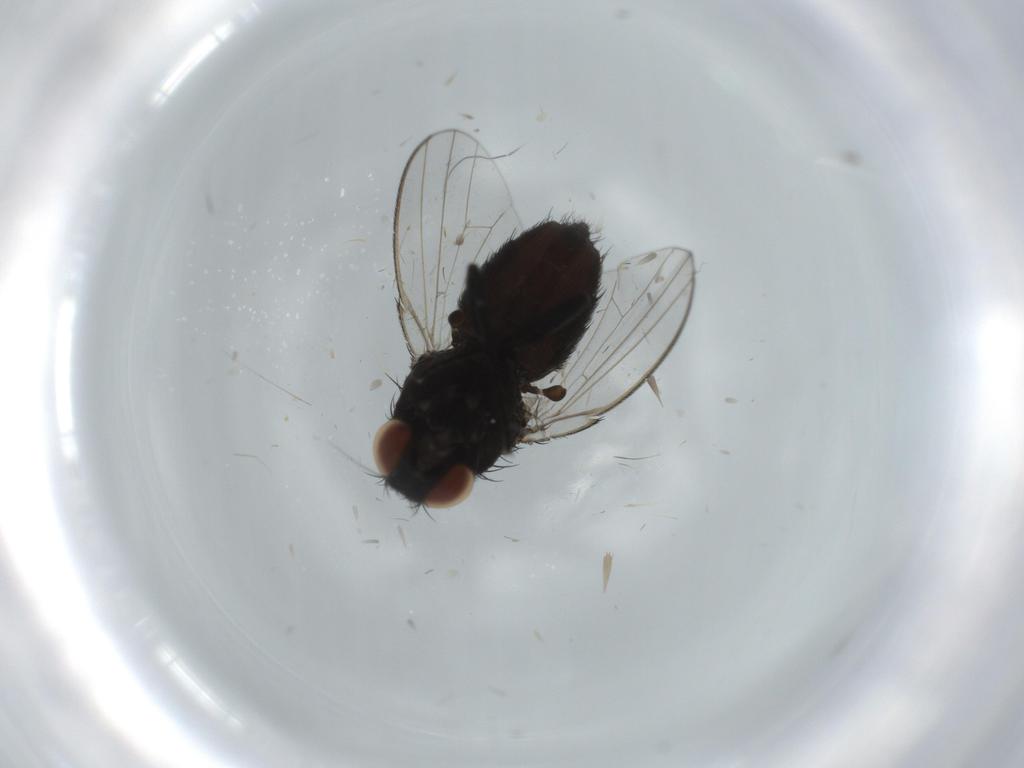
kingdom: Animalia
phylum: Arthropoda
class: Insecta
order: Diptera
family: Milichiidae
